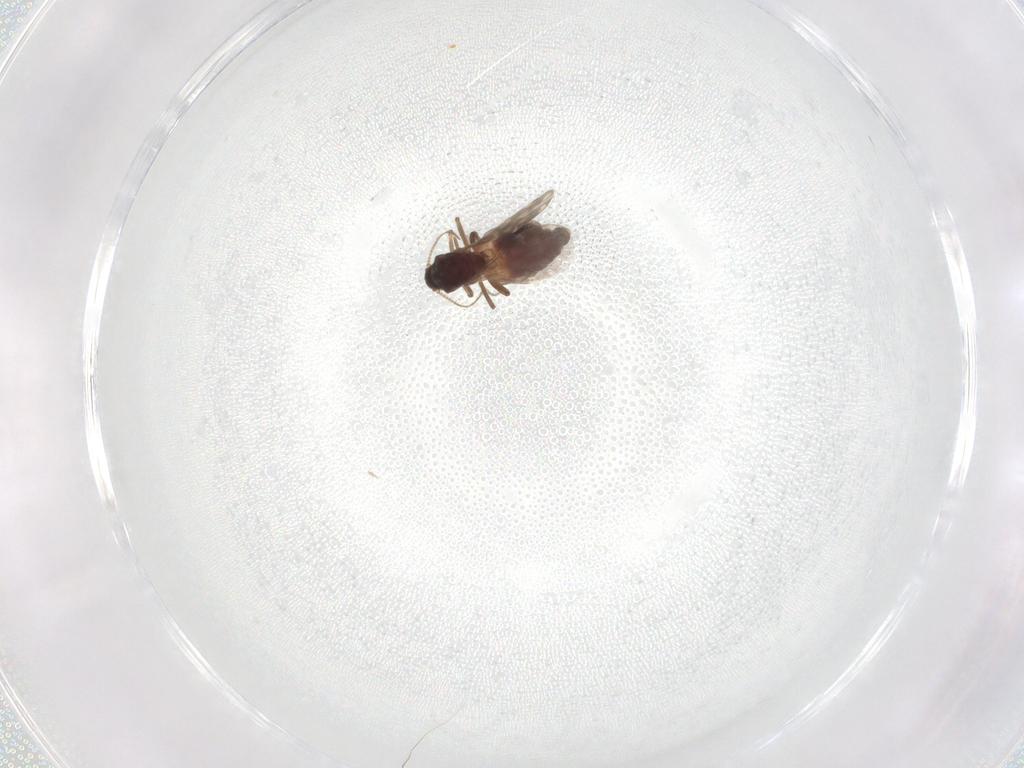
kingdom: Animalia
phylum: Arthropoda
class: Insecta
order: Diptera
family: Ceratopogonidae
